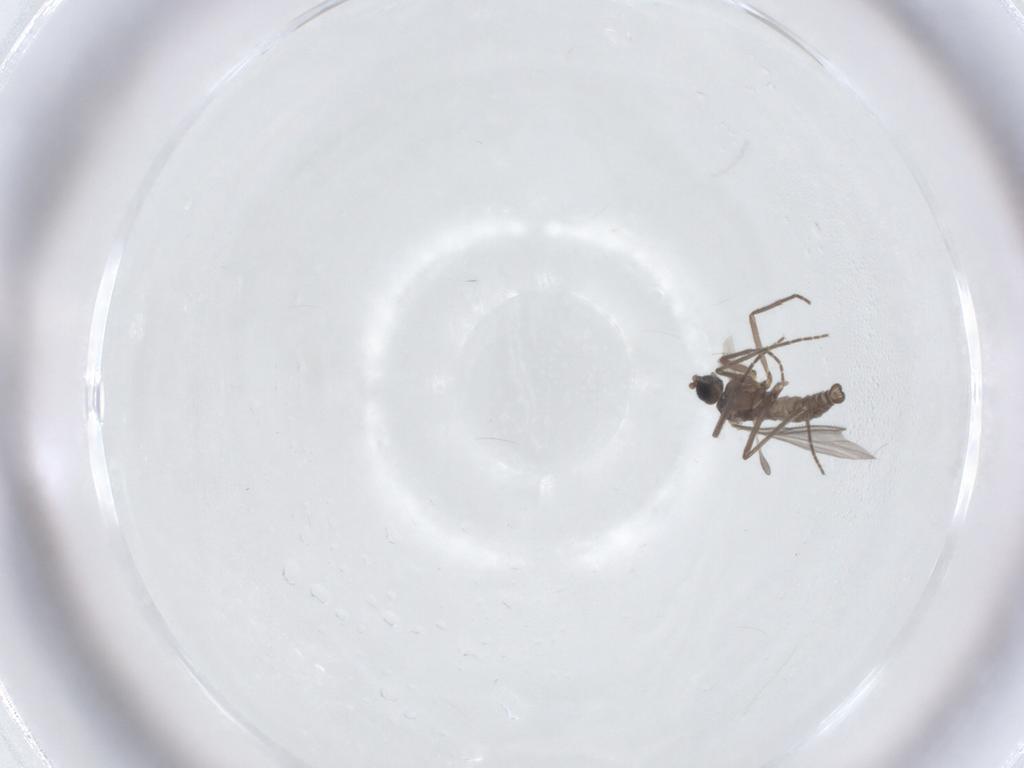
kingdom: Animalia
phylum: Arthropoda
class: Insecta
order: Diptera
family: Sciaridae
